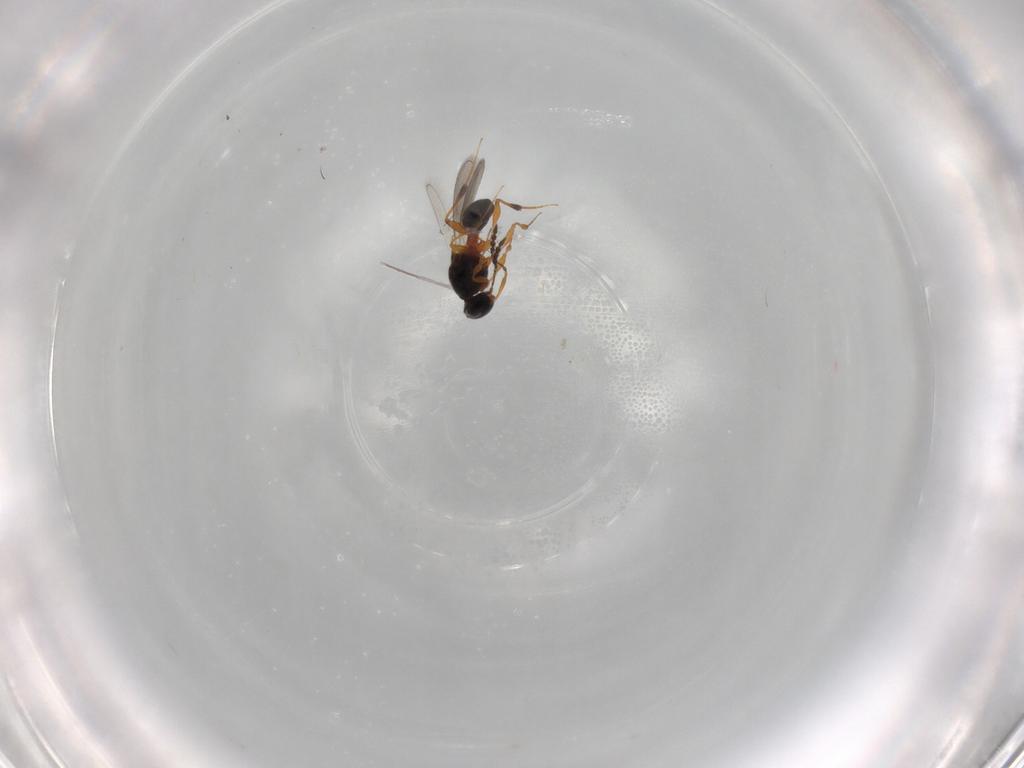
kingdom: Animalia
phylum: Arthropoda
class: Insecta
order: Hymenoptera
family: Platygastridae
